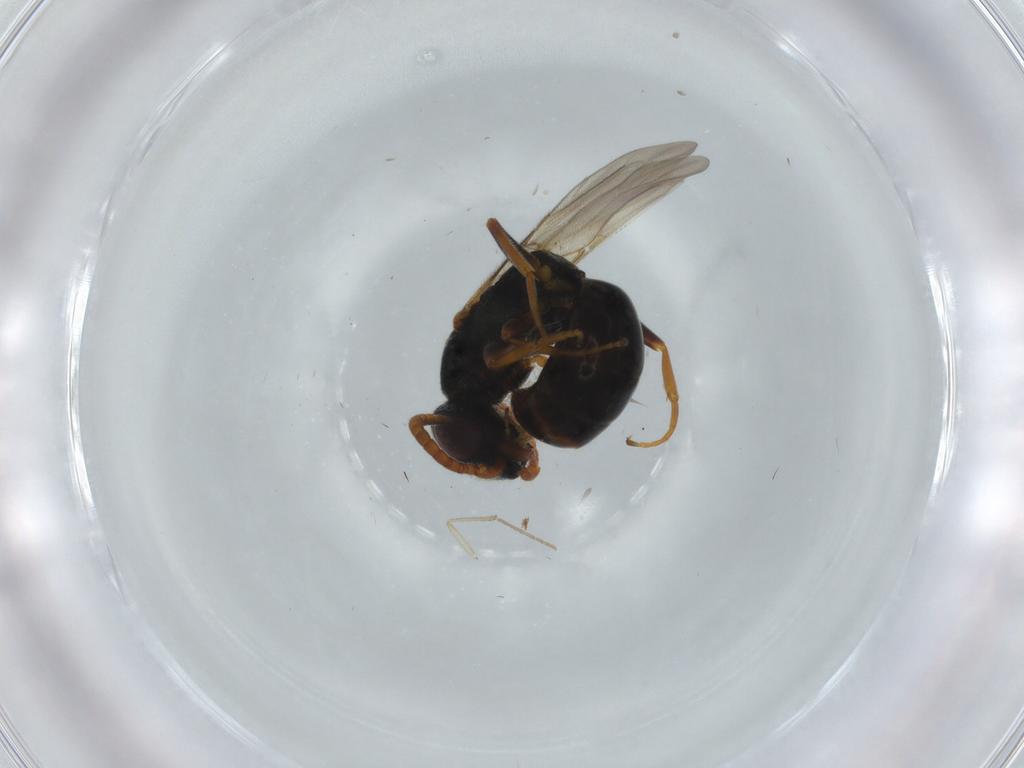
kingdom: Animalia
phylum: Arthropoda
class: Insecta
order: Hymenoptera
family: Bethylidae
